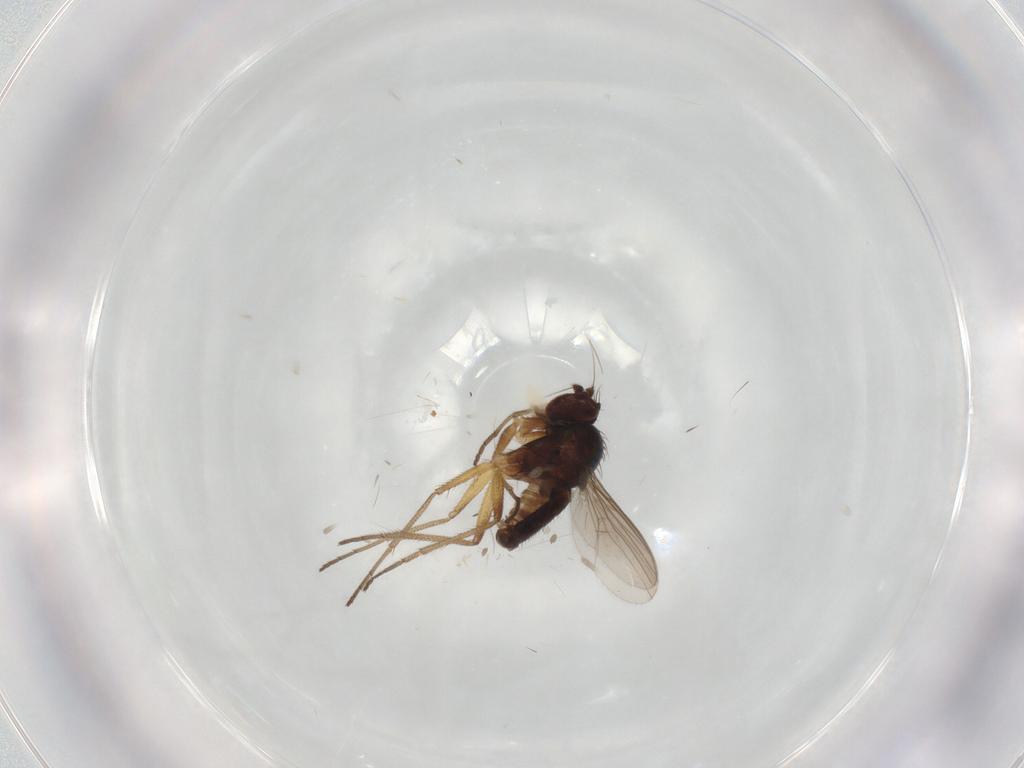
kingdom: Animalia
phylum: Arthropoda
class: Insecta
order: Diptera
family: Dolichopodidae
